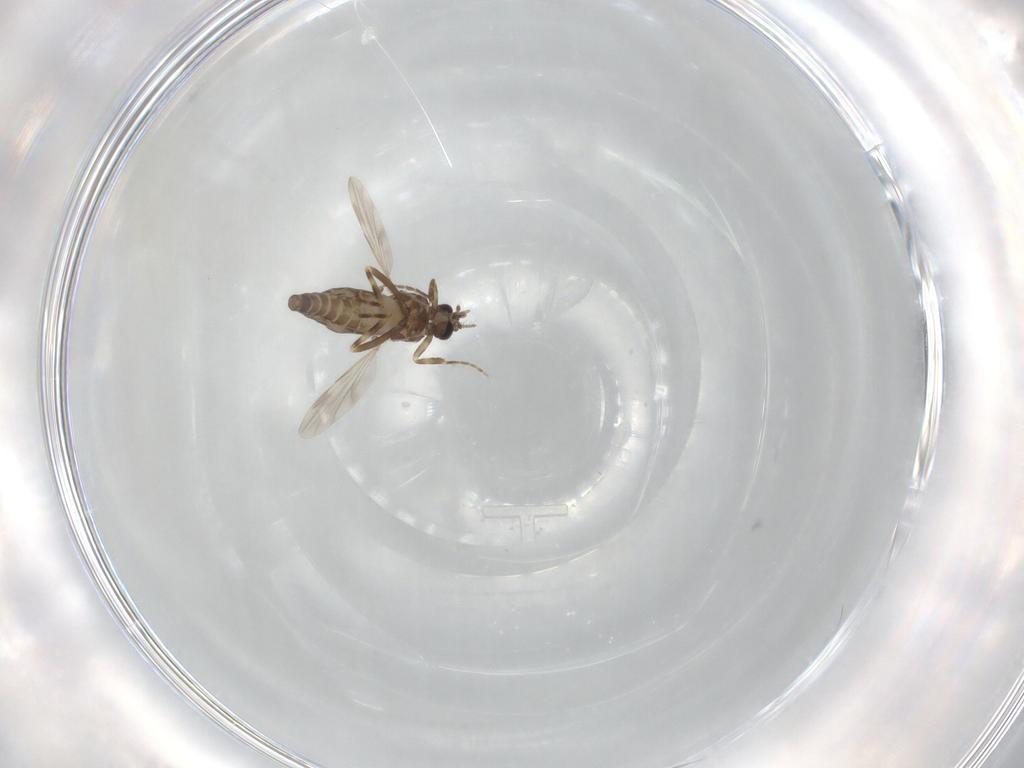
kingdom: Animalia
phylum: Arthropoda
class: Insecta
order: Diptera
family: Ceratopogonidae
